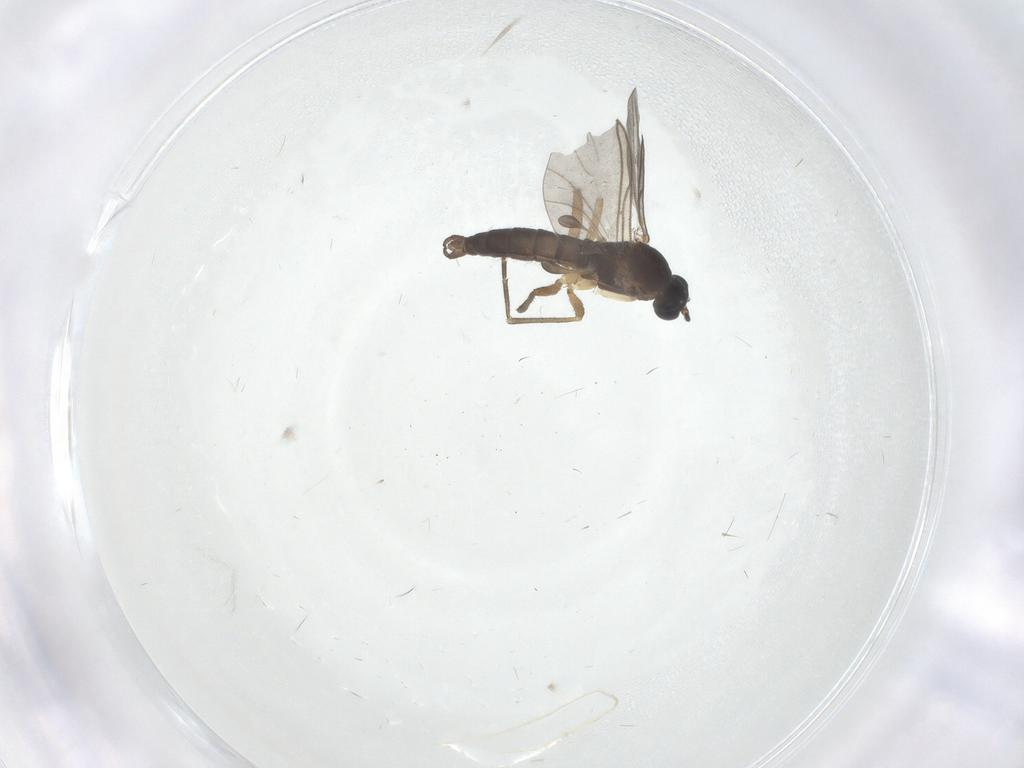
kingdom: Animalia
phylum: Arthropoda
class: Insecta
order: Diptera
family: Sciaridae
